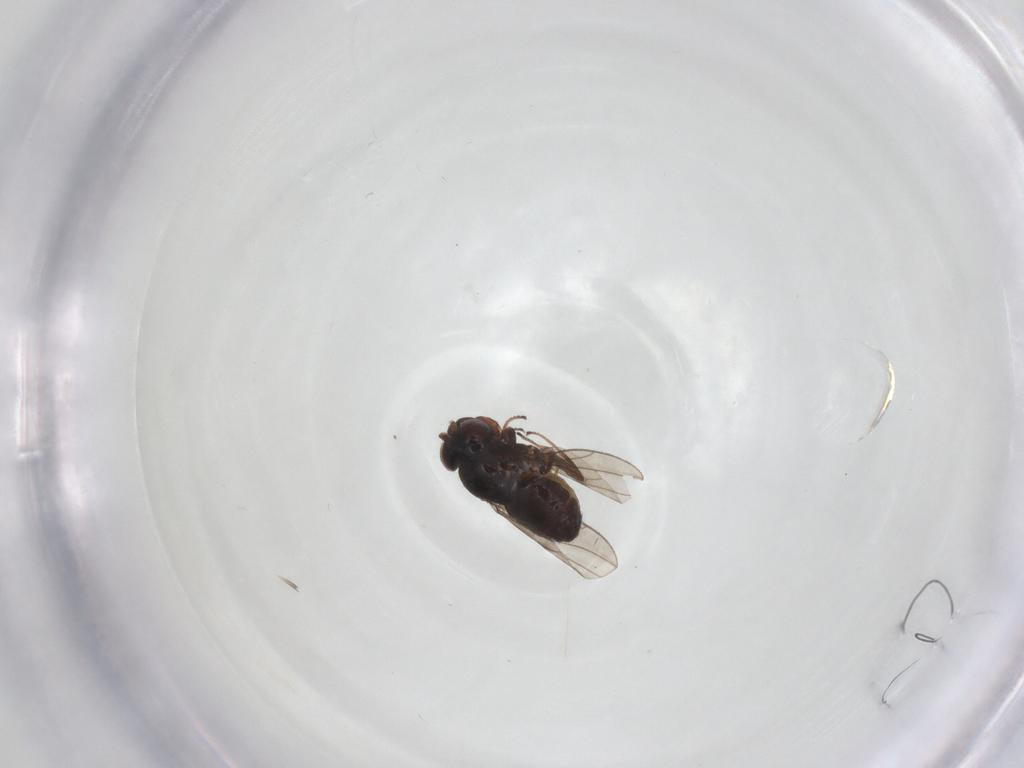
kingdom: Animalia
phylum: Arthropoda
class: Insecta
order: Diptera
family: Ephydridae
